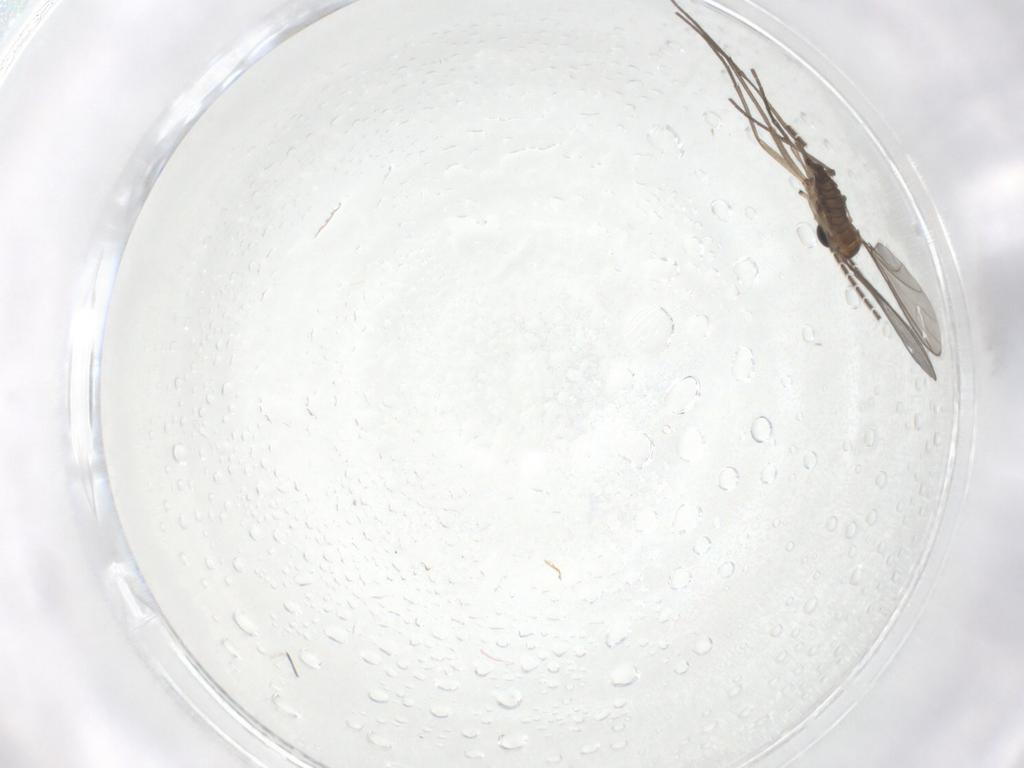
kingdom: Animalia
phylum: Arthropoda
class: Insecta
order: Diptera
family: Sciaridae
